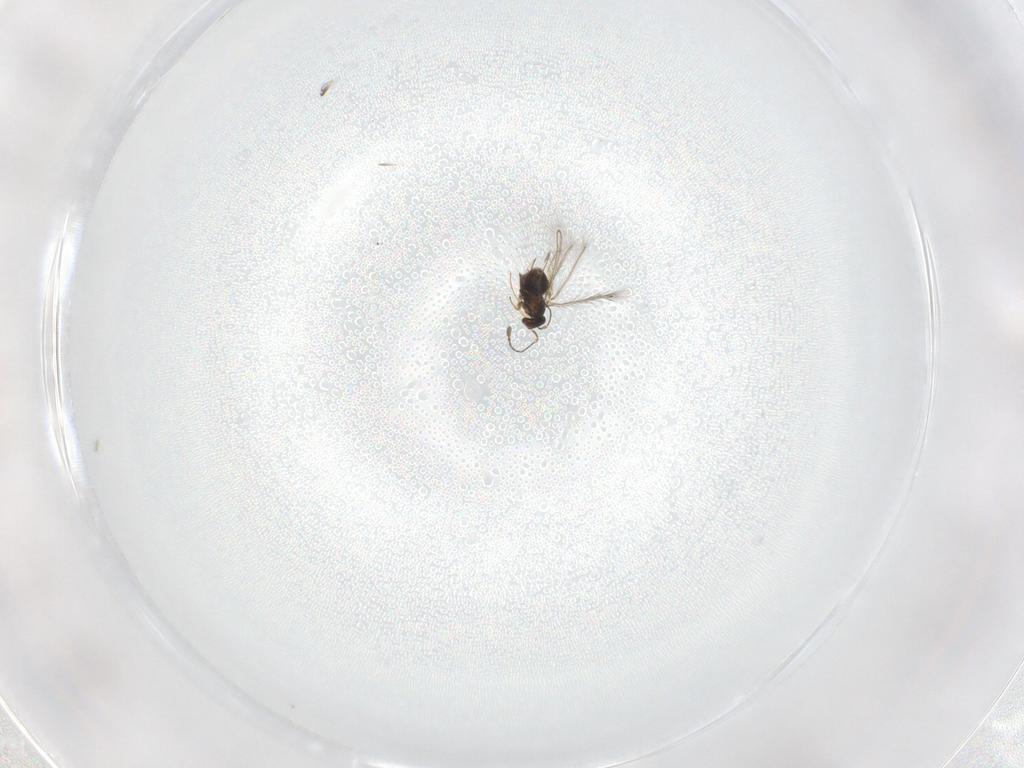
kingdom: Animalia
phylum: Arthropoda
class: Insecta
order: Hymenoptera
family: Mymaridae
